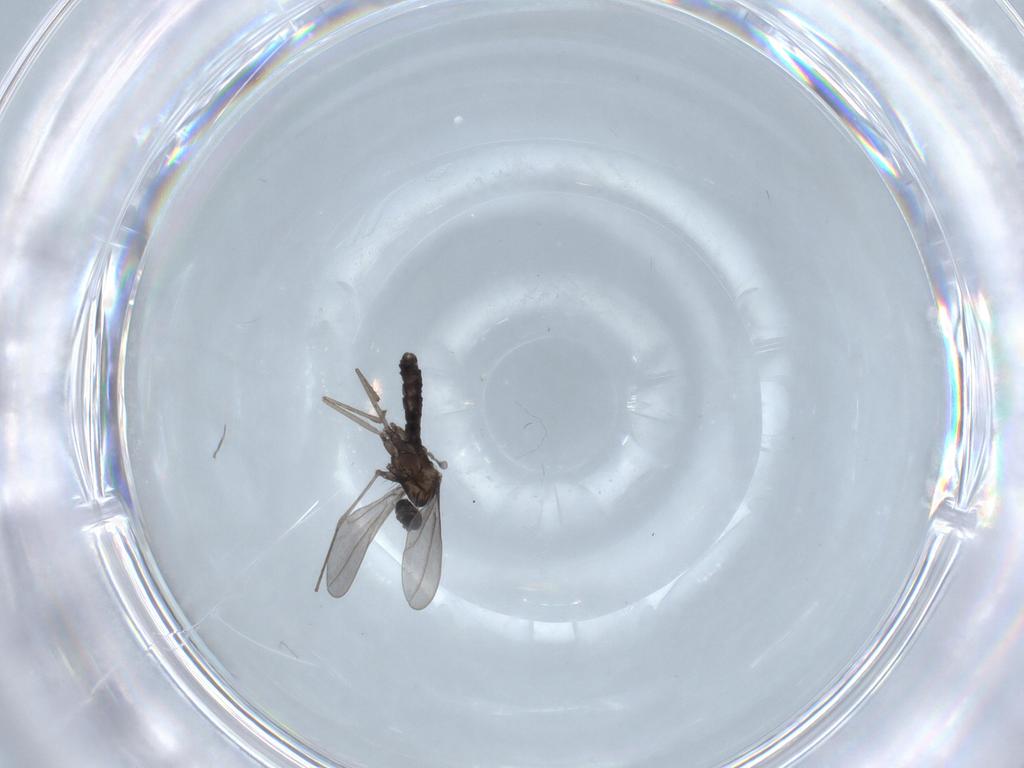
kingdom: Animalia
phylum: Arthropoda
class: Insecta
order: Diptera
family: Cecidomyiidae
